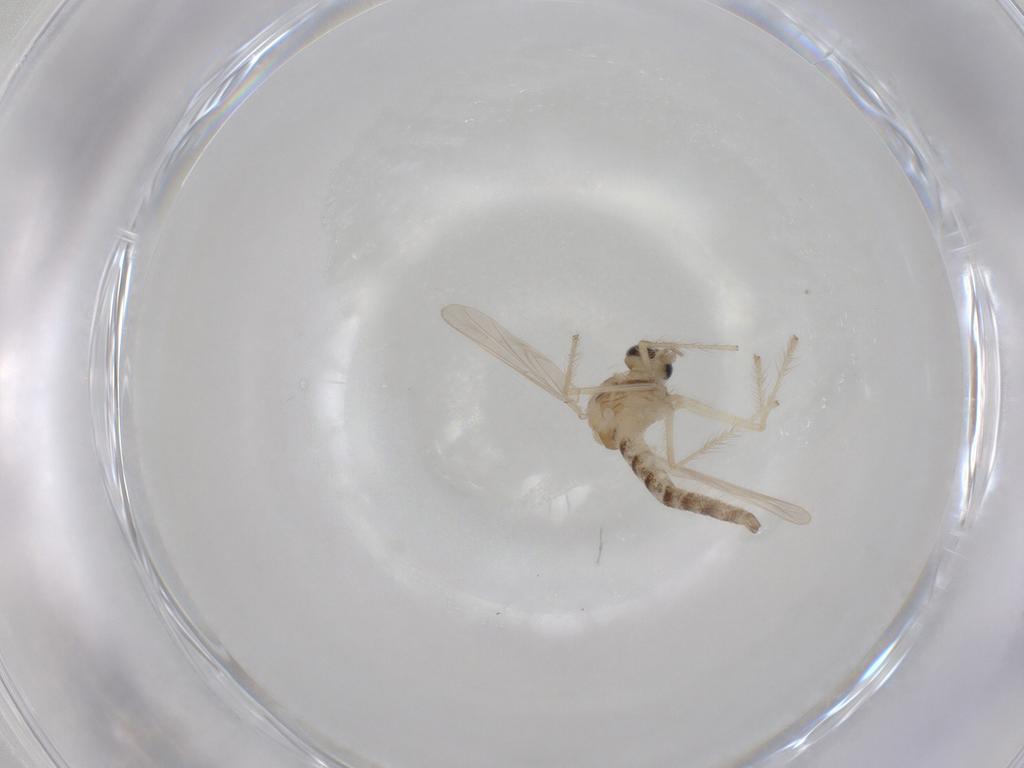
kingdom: Animalia
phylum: Arthropoda
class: Insecta
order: Diptera
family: Chironomidae
